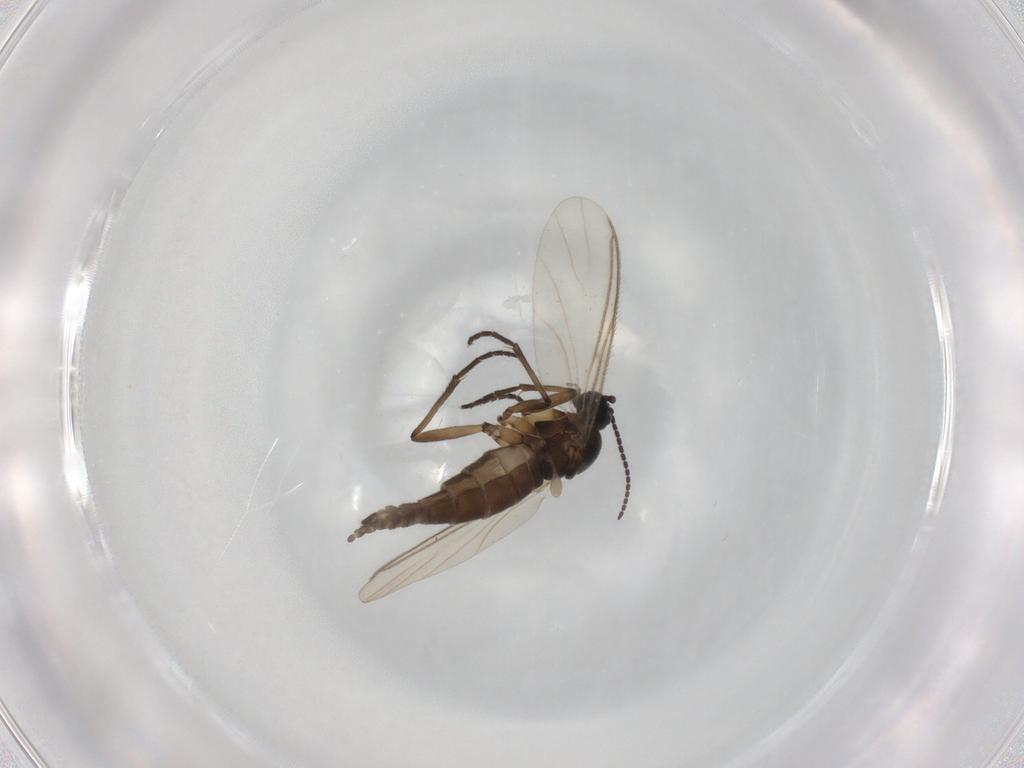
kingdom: Animalia
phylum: Arthropoda
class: Insecta
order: Diptera
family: Sciaridae
